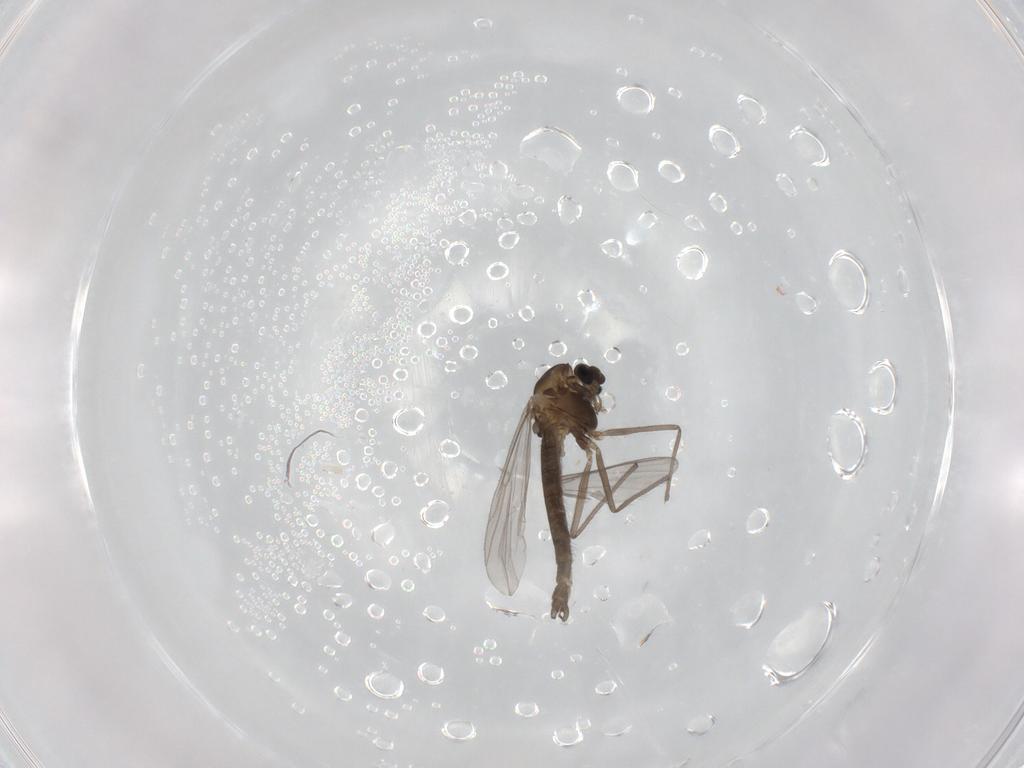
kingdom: Animalia
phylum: Arthropoda
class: Insecta
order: Diptera
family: Chironomidae
